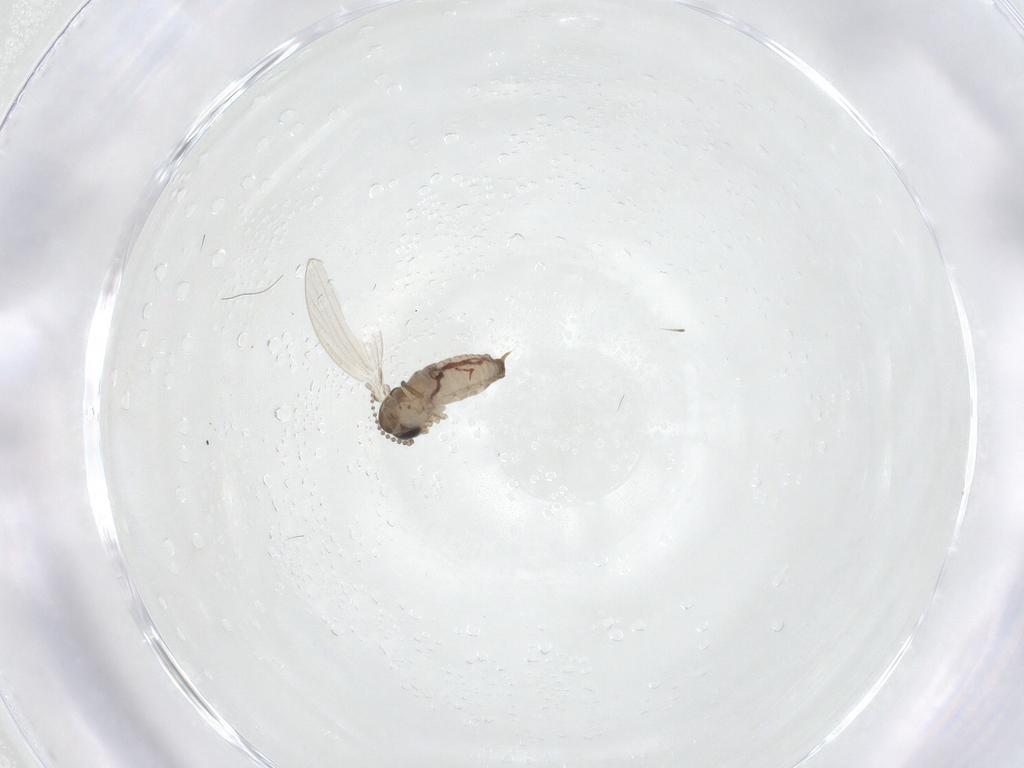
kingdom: Animalia
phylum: Arthropoda
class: Insecta
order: Diptera
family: Psychodidae
